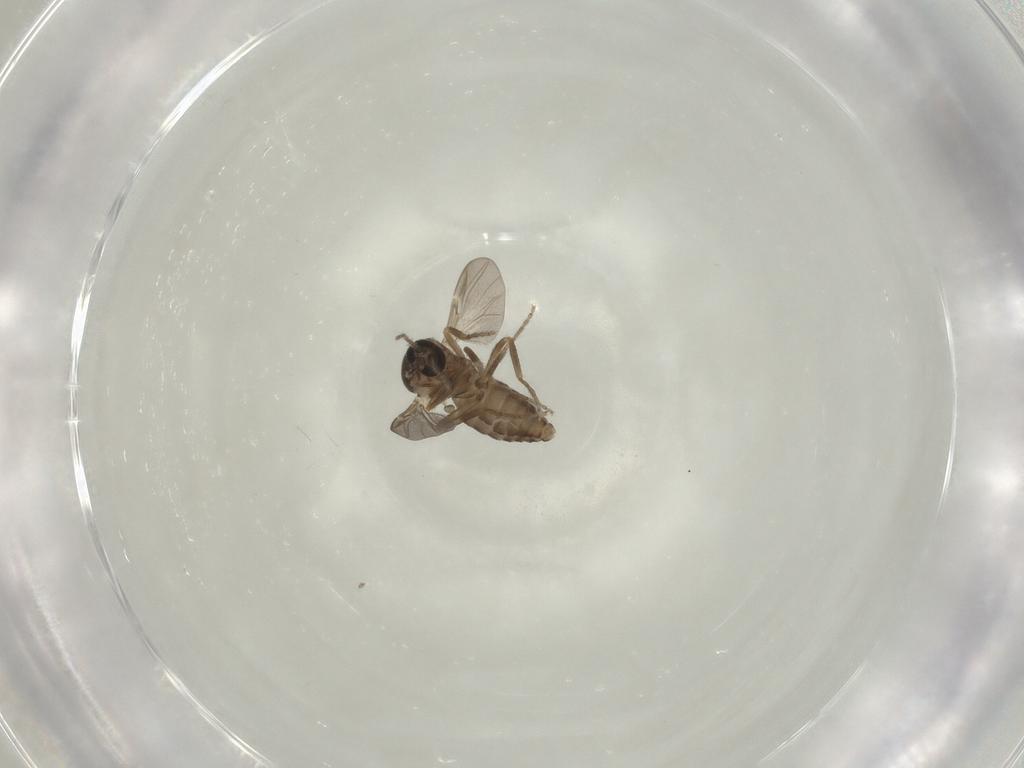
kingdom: Animalia
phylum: Arthropoda
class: Insecta
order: Diptera
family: Ceratopogonidae
